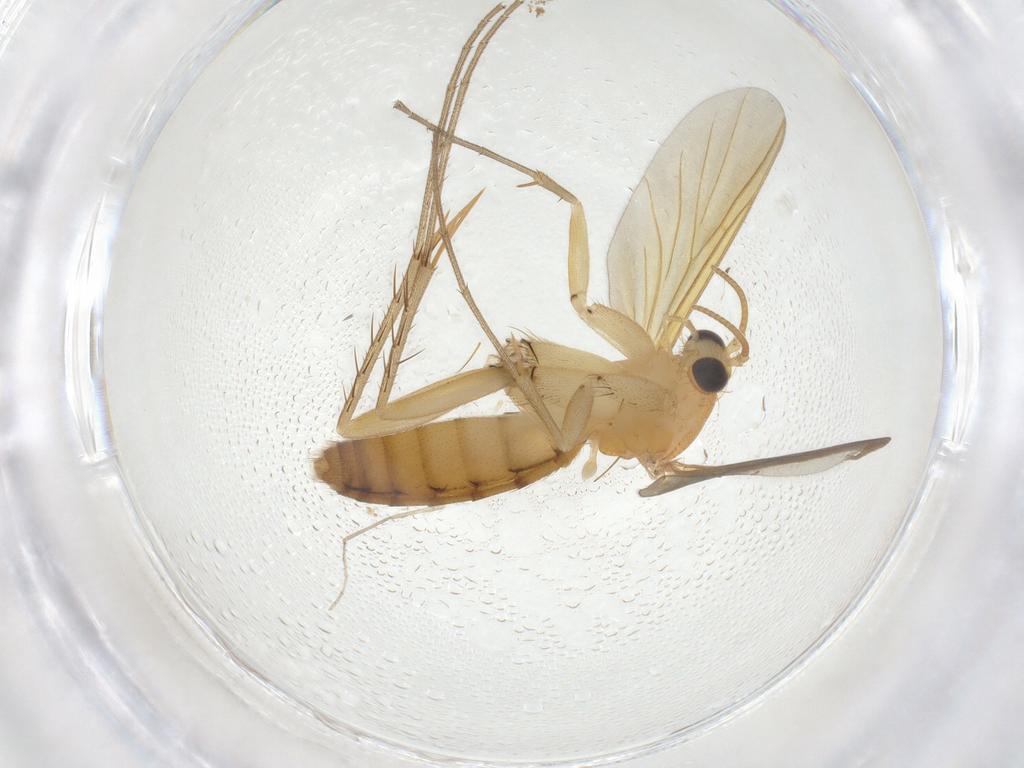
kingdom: Animalia
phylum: Arthropoda
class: Insecta
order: Diptera
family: Mycetophilidae
